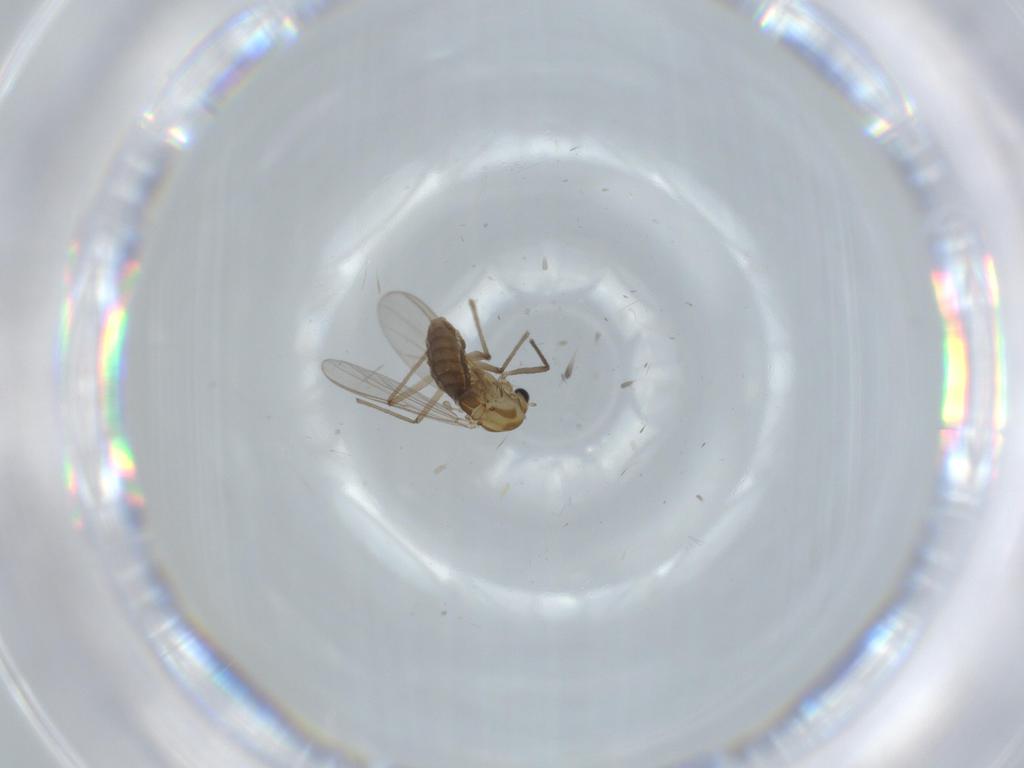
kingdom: Animalia
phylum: Arthropoda
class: Insecta
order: Diptera
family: Chironomidae
